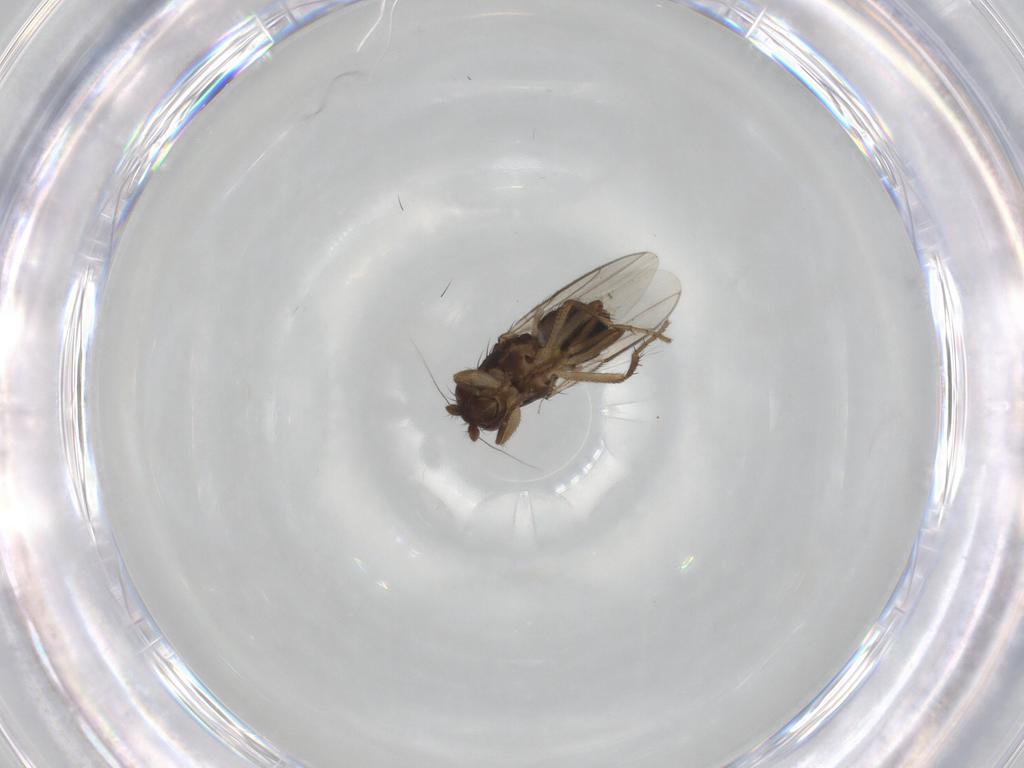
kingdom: Animalia
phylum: Arthropoda
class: Insecta
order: Diptera
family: Sphaeroceridae
